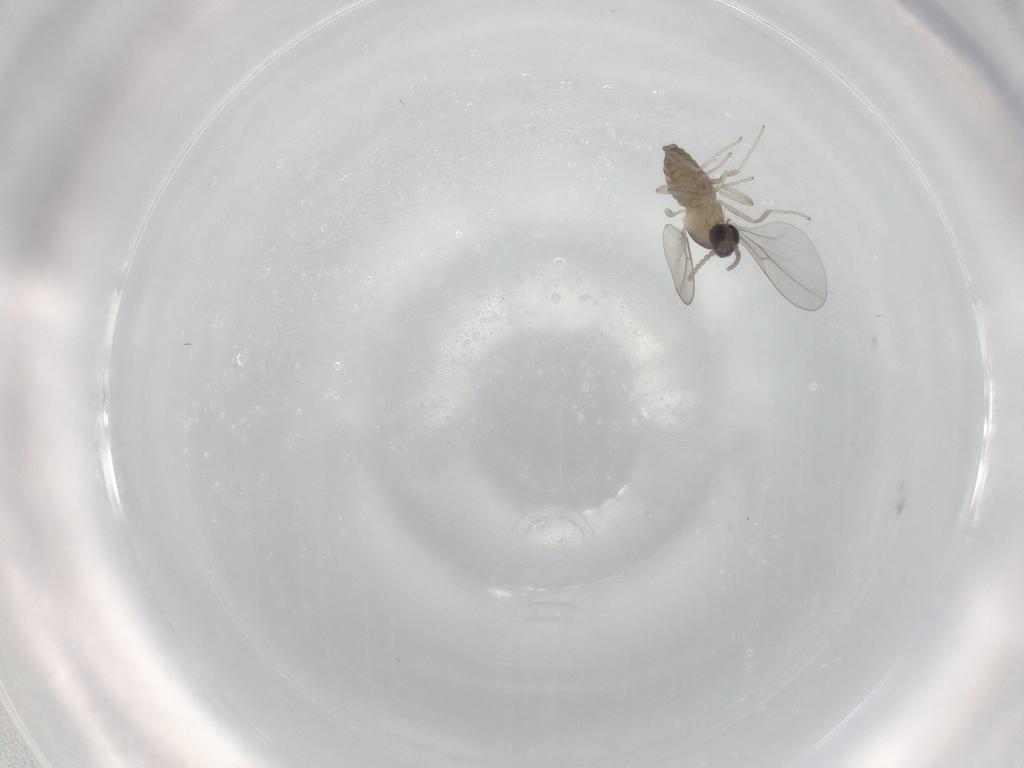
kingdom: Animalia
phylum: Arthropoda
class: Insecta
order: Diptera
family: Cecidomyiidae
